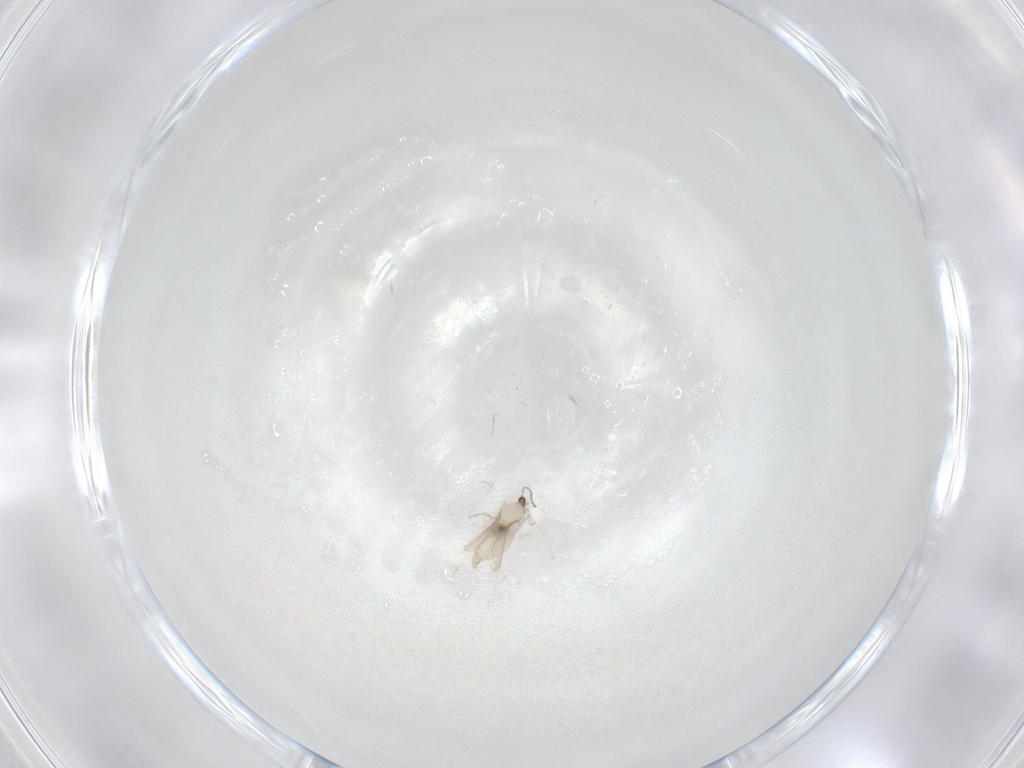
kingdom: Animalia
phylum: Arthropoda
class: Insecta
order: Diptera
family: Cecidomyiidae
